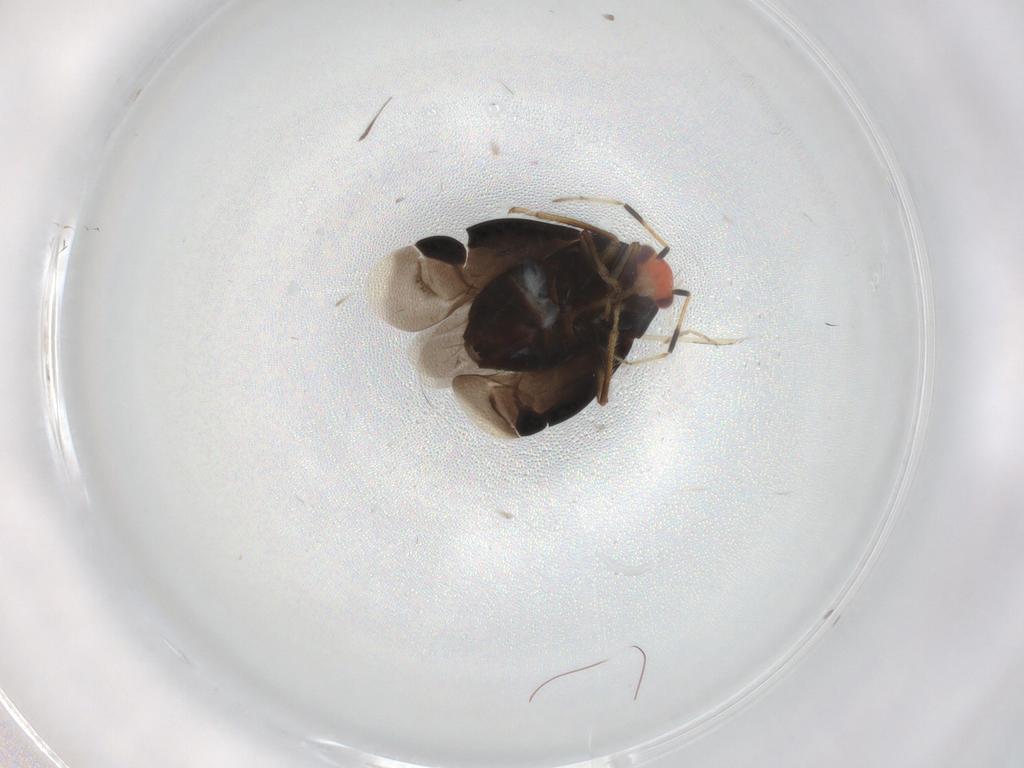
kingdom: Animalia
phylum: Arthropoda
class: Insecta
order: Hemiptera
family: Miridae
